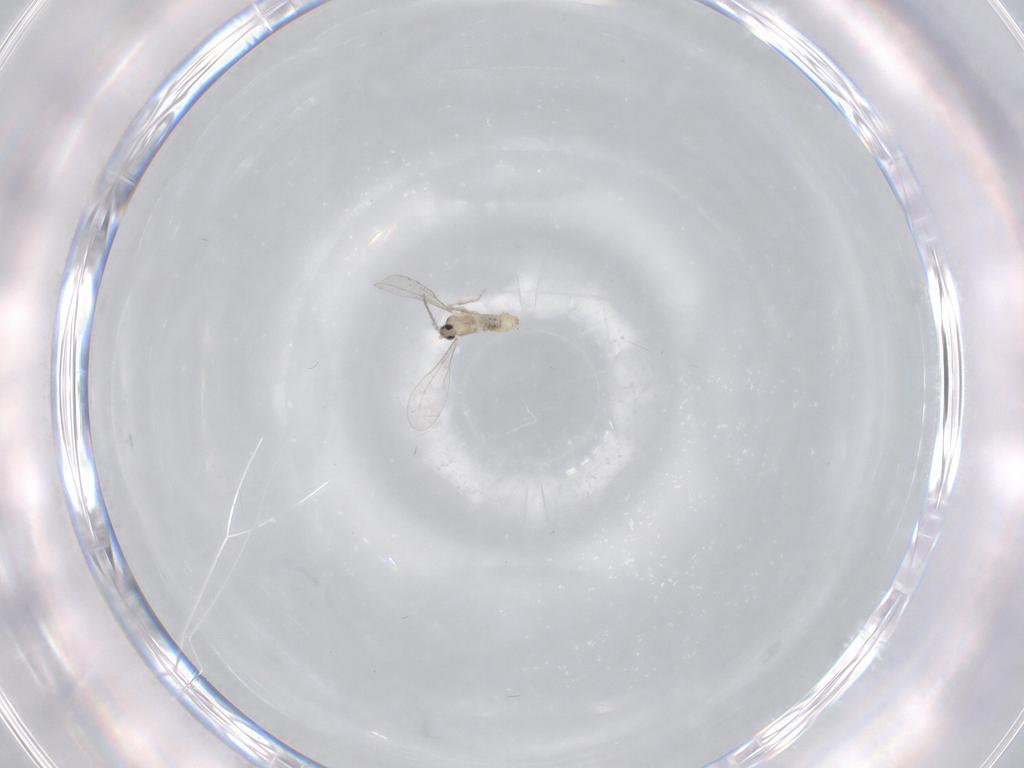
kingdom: Animalia
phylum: Arthropoda
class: Insecta
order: Diptera
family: Cecidomyiidae
